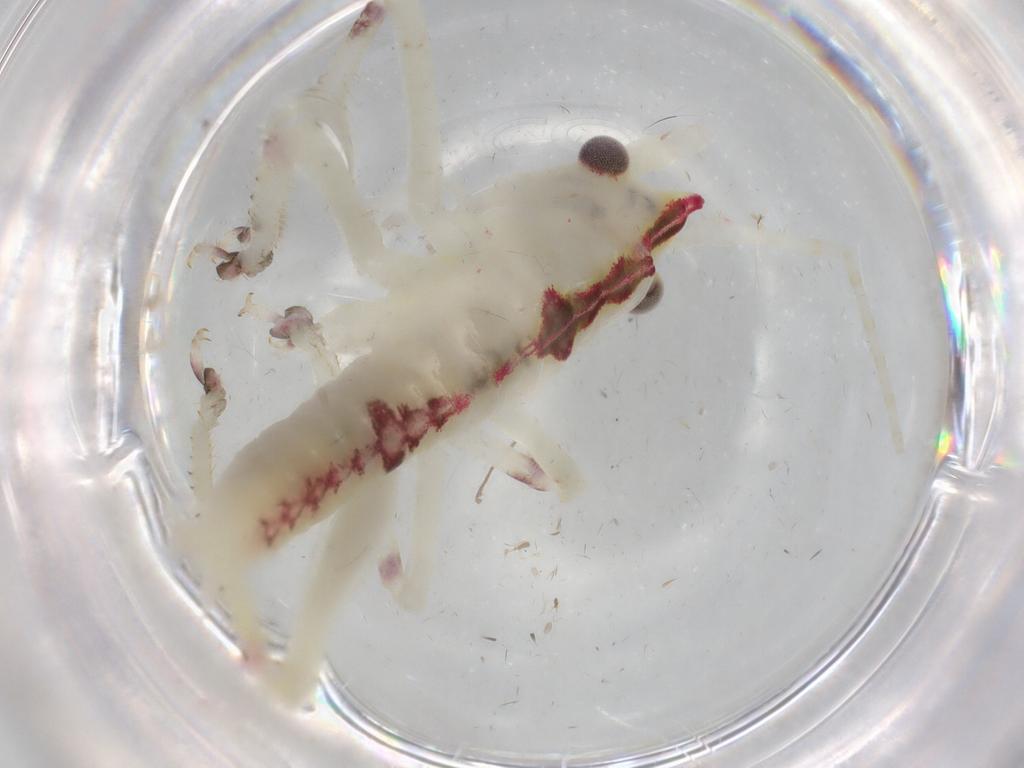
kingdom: Animalia
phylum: Arthropoda
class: Insecta
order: Orthoptera
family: Tettigoniidae
